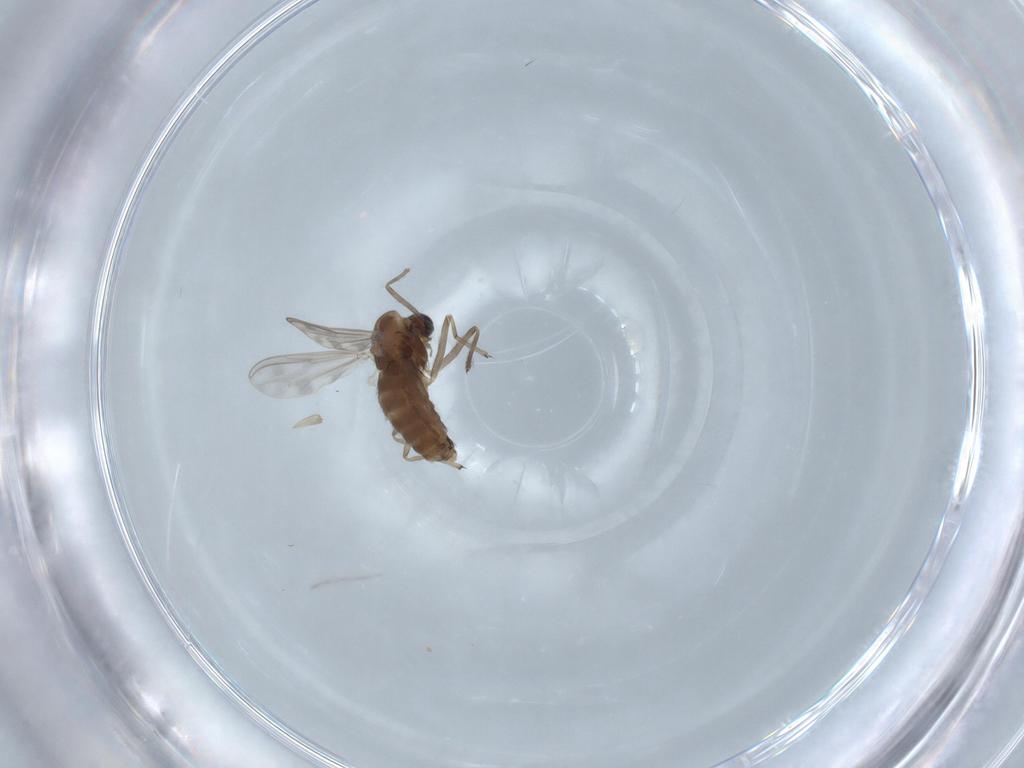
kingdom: Animalia
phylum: Arthropoda
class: Insecta
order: Diptera
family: Chironomidae
